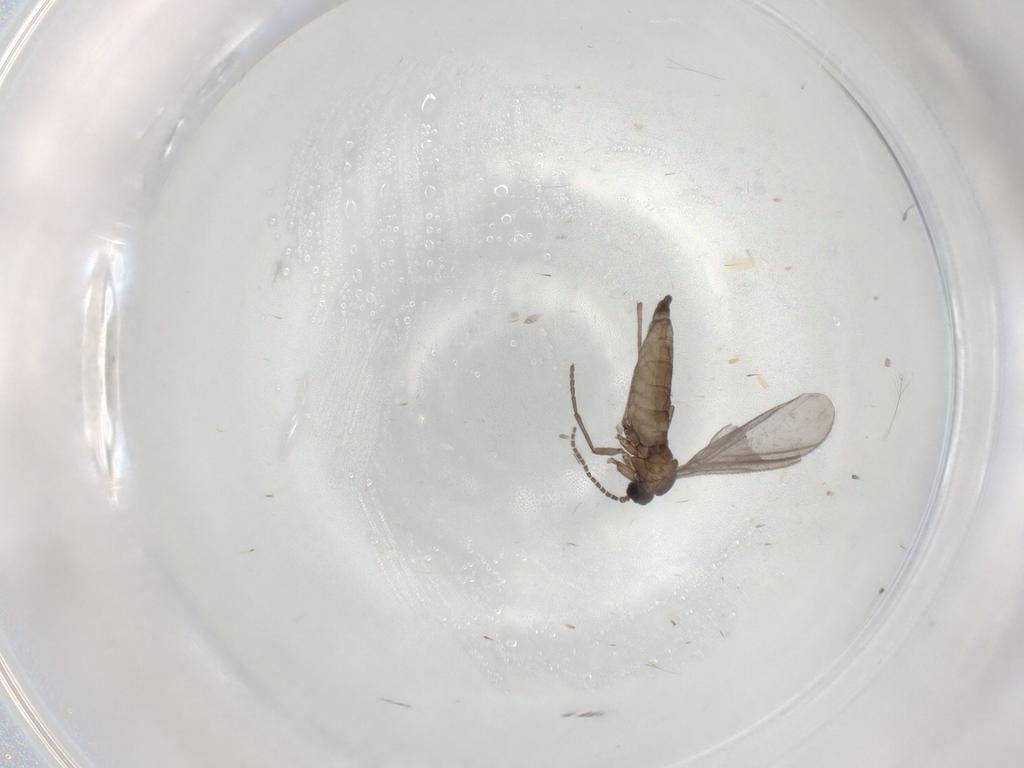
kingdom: Animalia
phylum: Arthropoda
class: Insecta
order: Diptera
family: Sciaridae
